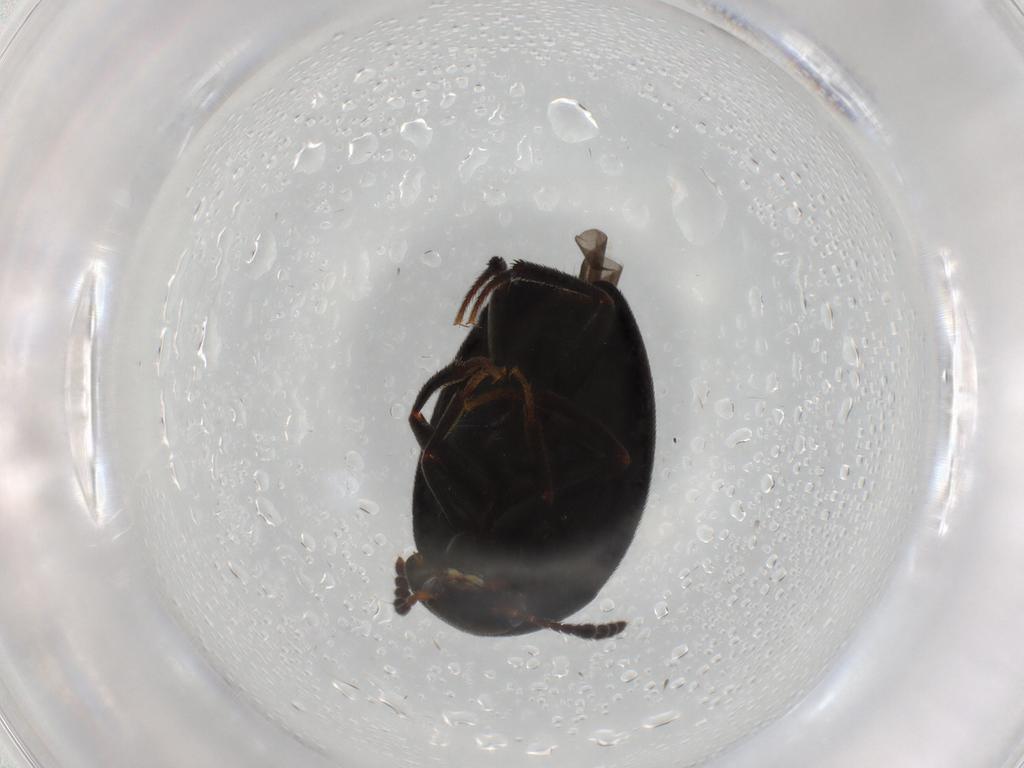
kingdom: Animalia
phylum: Arthropoda
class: Insecta
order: Coleoptera
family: Leiodidae
